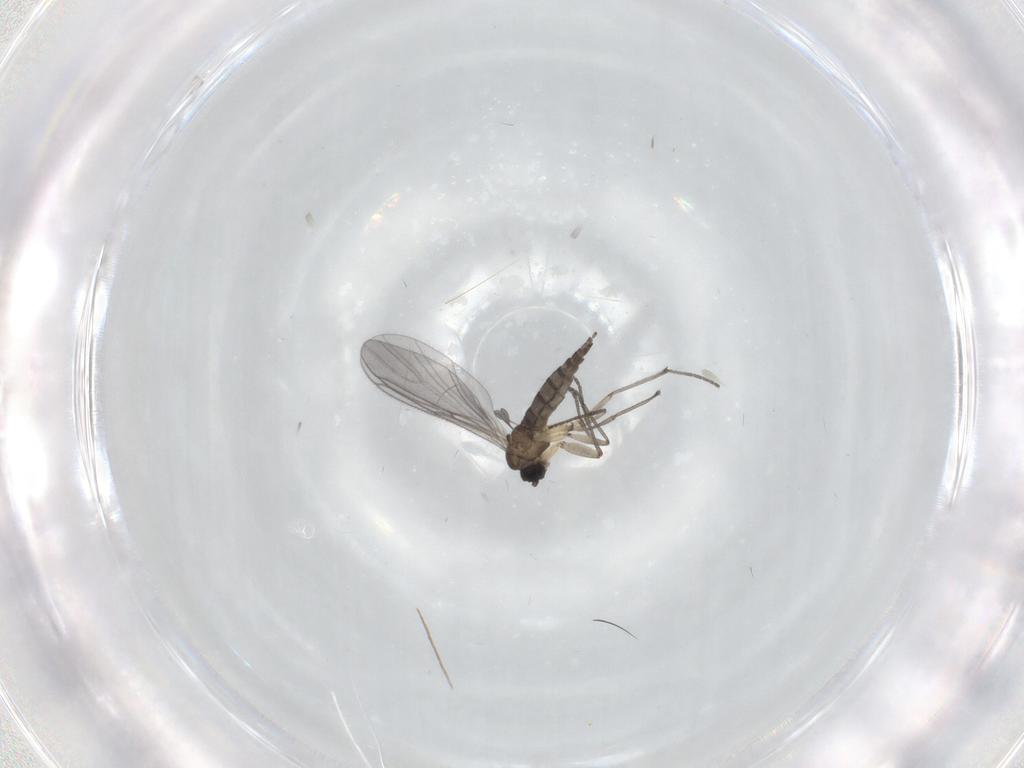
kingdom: Animalia
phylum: Arthropoda
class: Insecta
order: Diptera
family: Sciaridae
